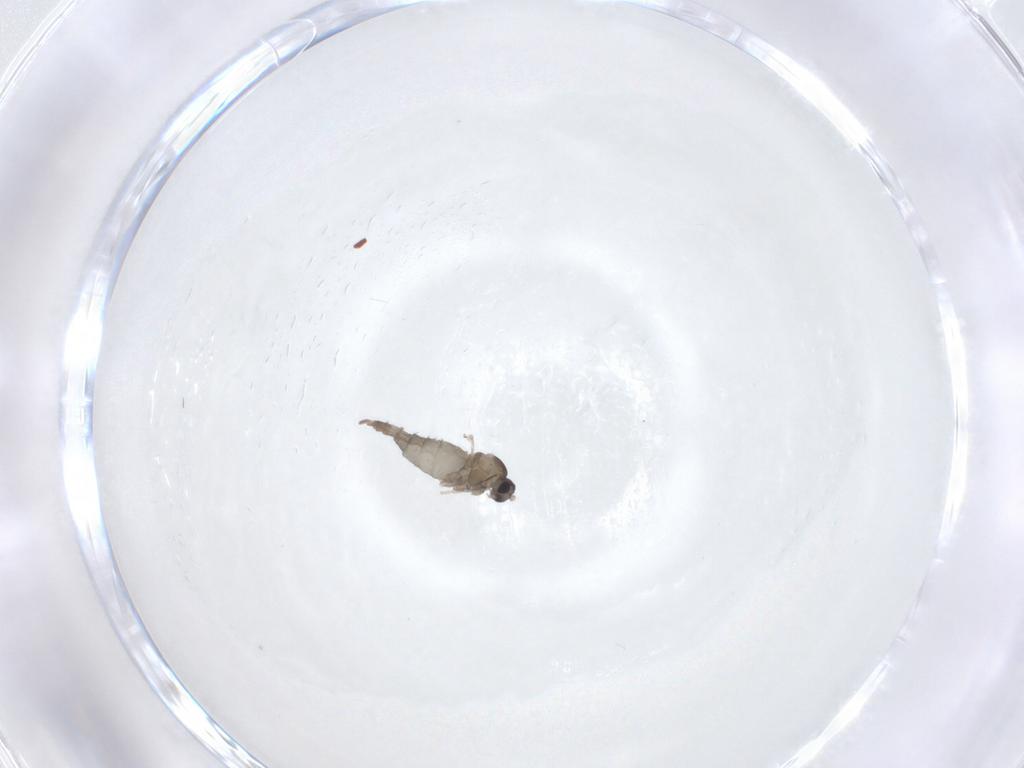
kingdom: Animalia
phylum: Arthropoda
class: Insecta
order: Diptera
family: Cecidomyiidae
